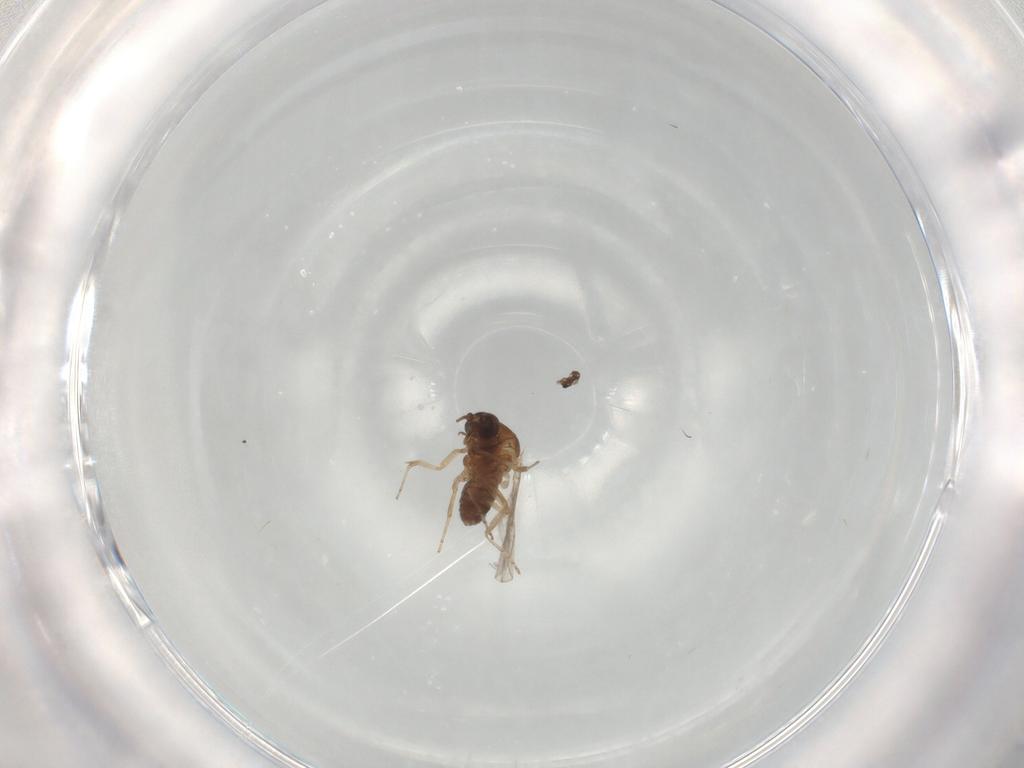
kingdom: Animalia
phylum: Arthropoda
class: Insecta
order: Diptera
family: Cecidomyiidae
